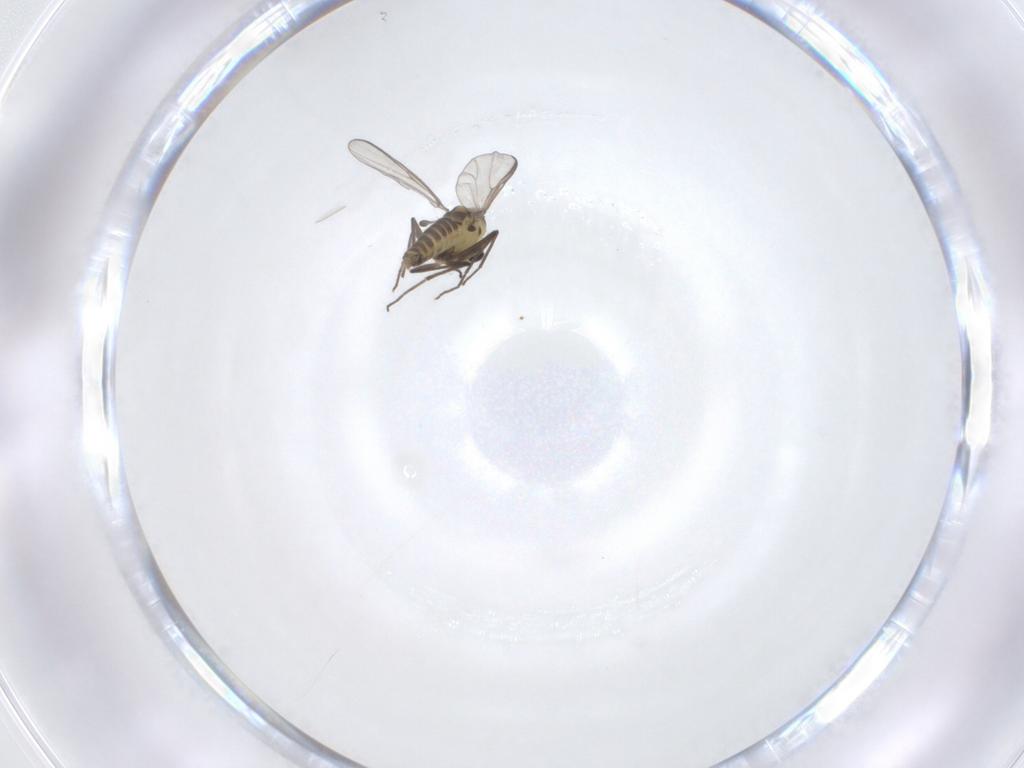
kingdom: Animalia
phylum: Arthropoda
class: Insecta
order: Diptera
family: Chironomidae
